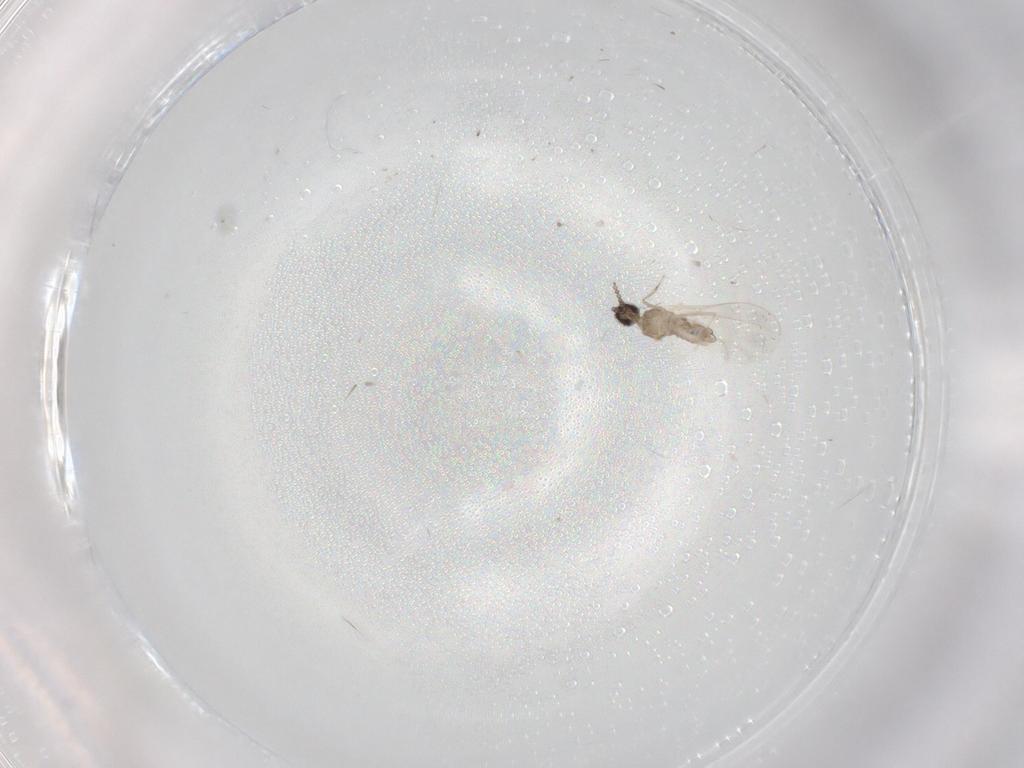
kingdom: Animalia
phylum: Arthropoda
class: Insecta
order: Diptera
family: Cecidomyiidae
